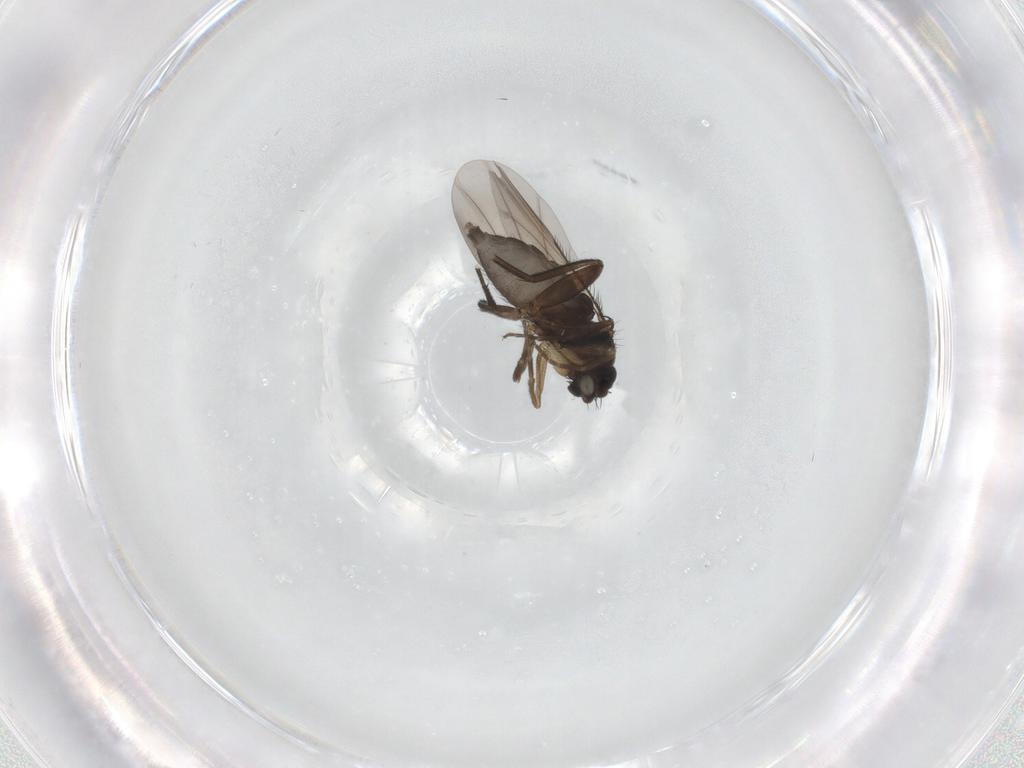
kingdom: Animalia
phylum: Arthropoda
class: Insecta
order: Diptera
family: Phoridae
